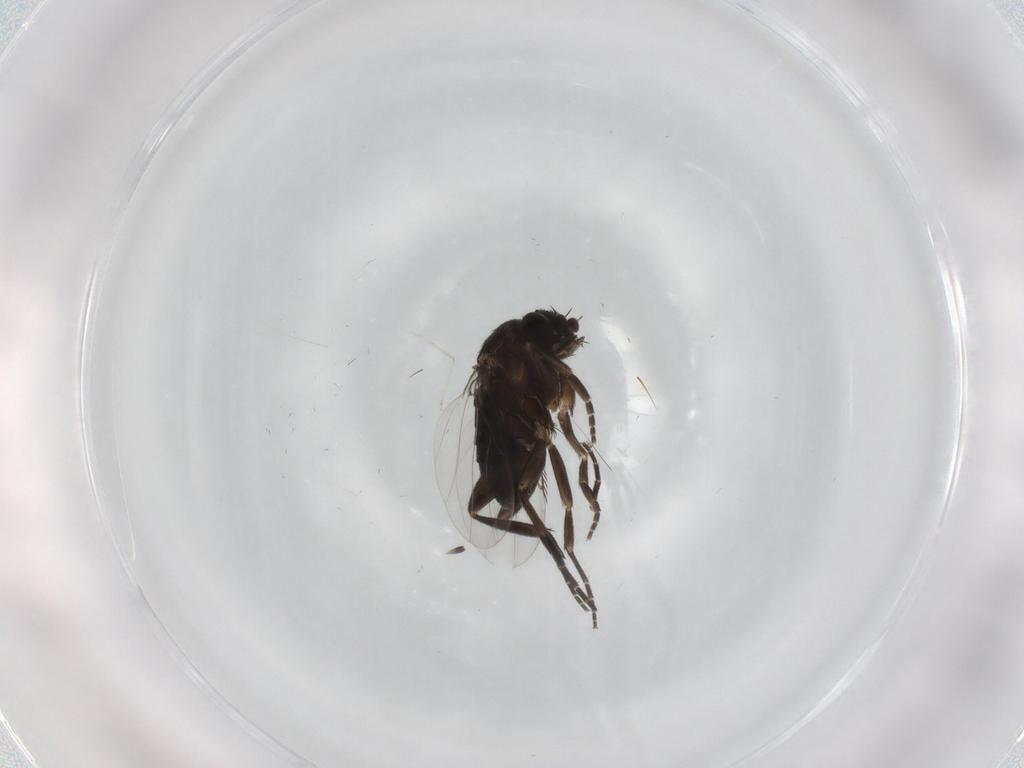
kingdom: Animalia
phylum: Arthropoda
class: Insecta
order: Diptera
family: Phoridae
